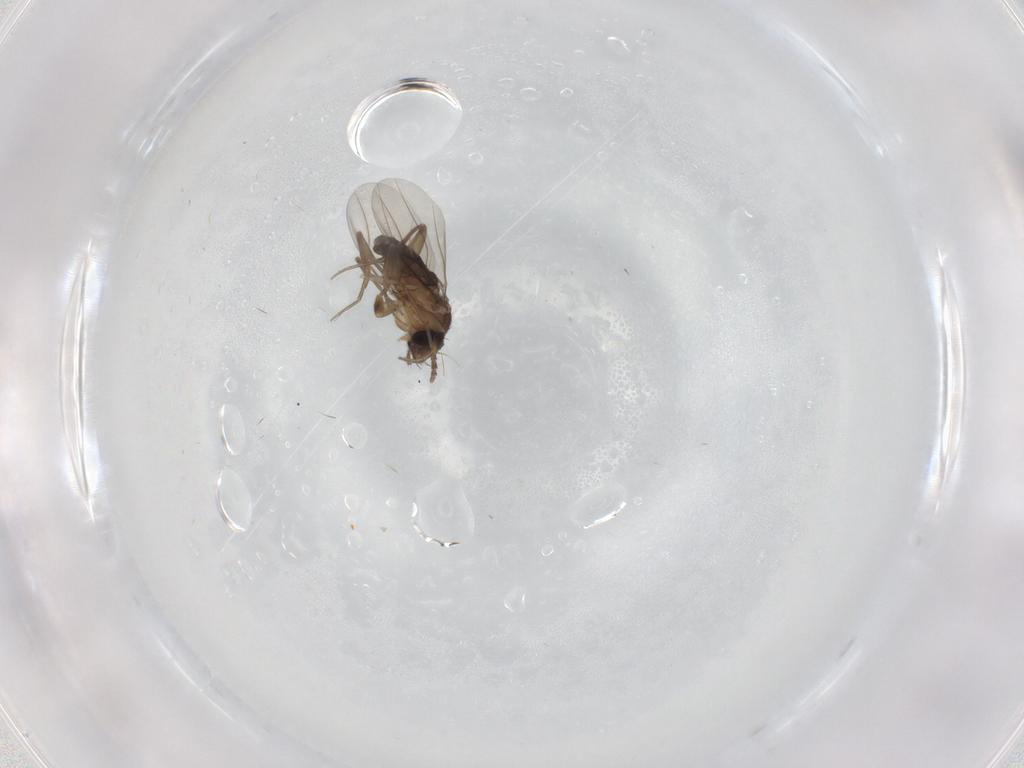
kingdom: Animalia
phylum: Arthropoda
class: Insecta
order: Diptera
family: Phoridae
